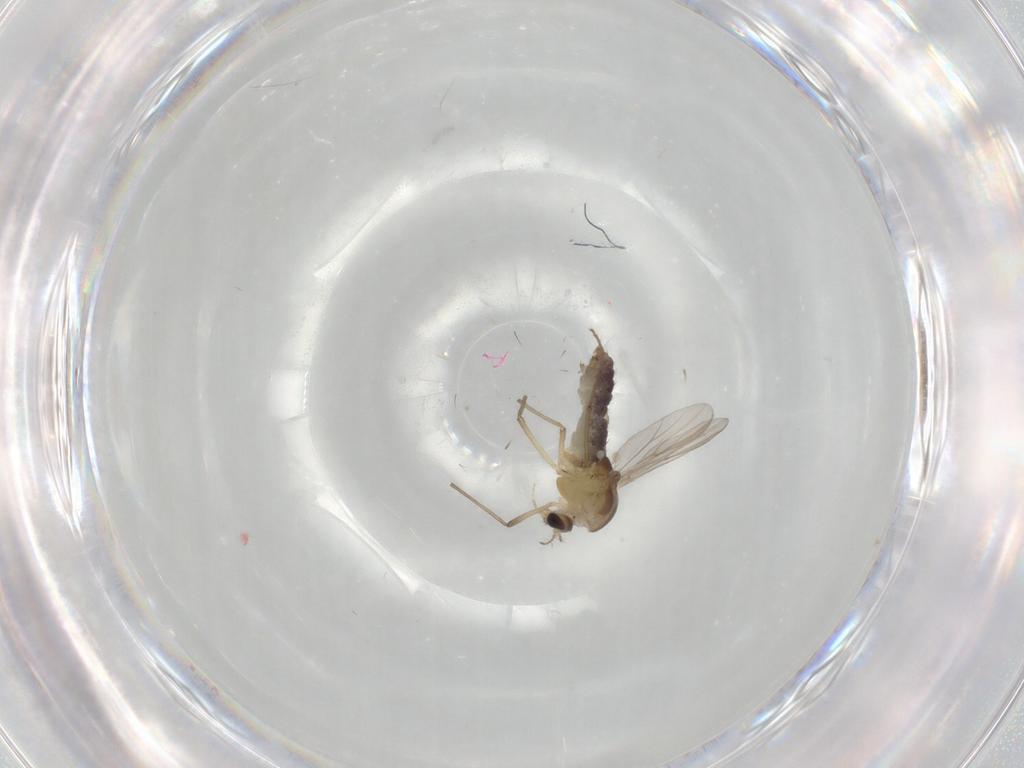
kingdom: Animalia
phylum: Arthropoda
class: Insecta
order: Diptera
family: Chironomidae
